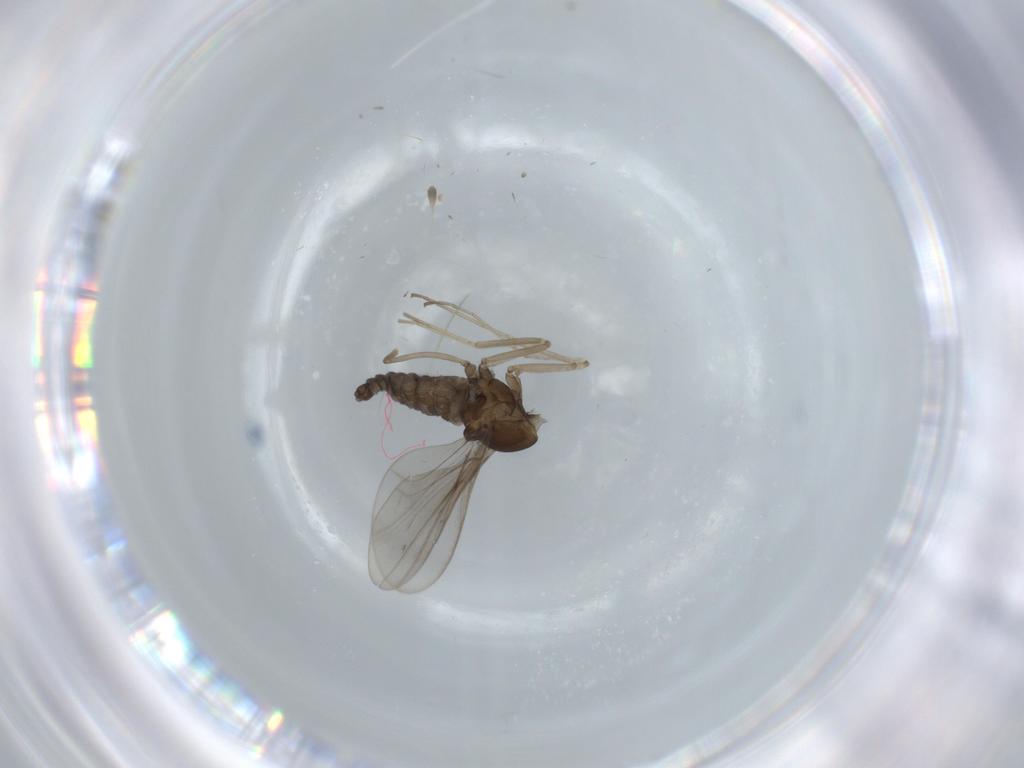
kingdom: Animalia
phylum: Arthropoda
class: Insecta
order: Diptera
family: Cecidomyiidae
